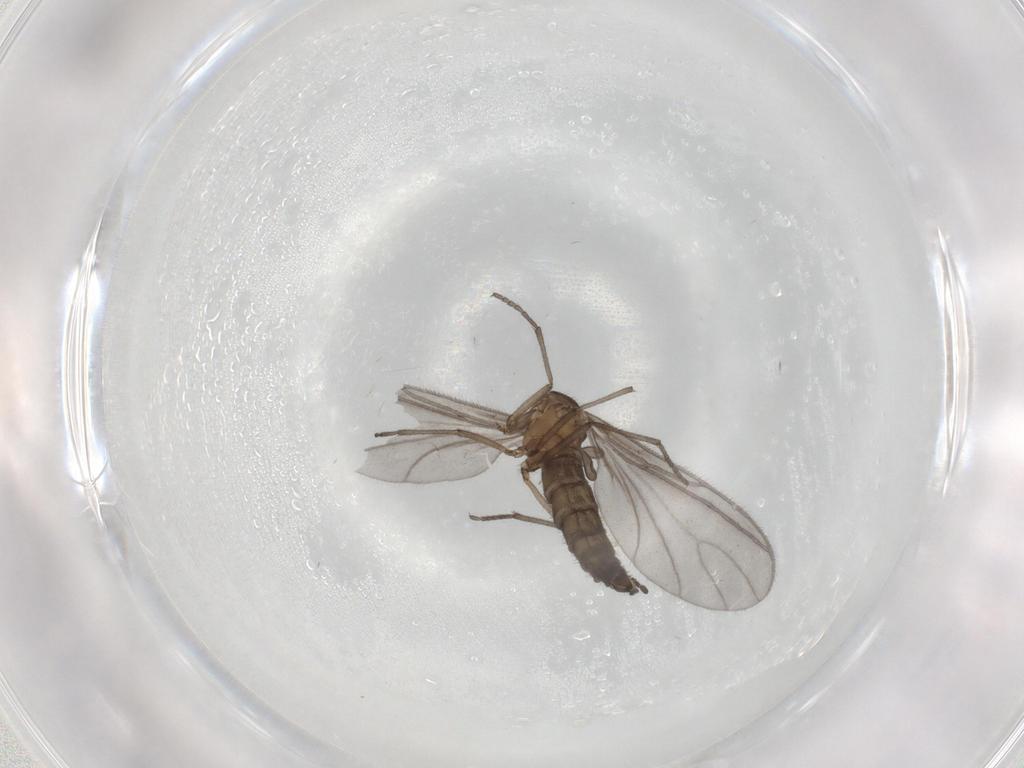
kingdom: Animalia
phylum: Arthropoda
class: Insecta
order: Diptera
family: Sciaridae
